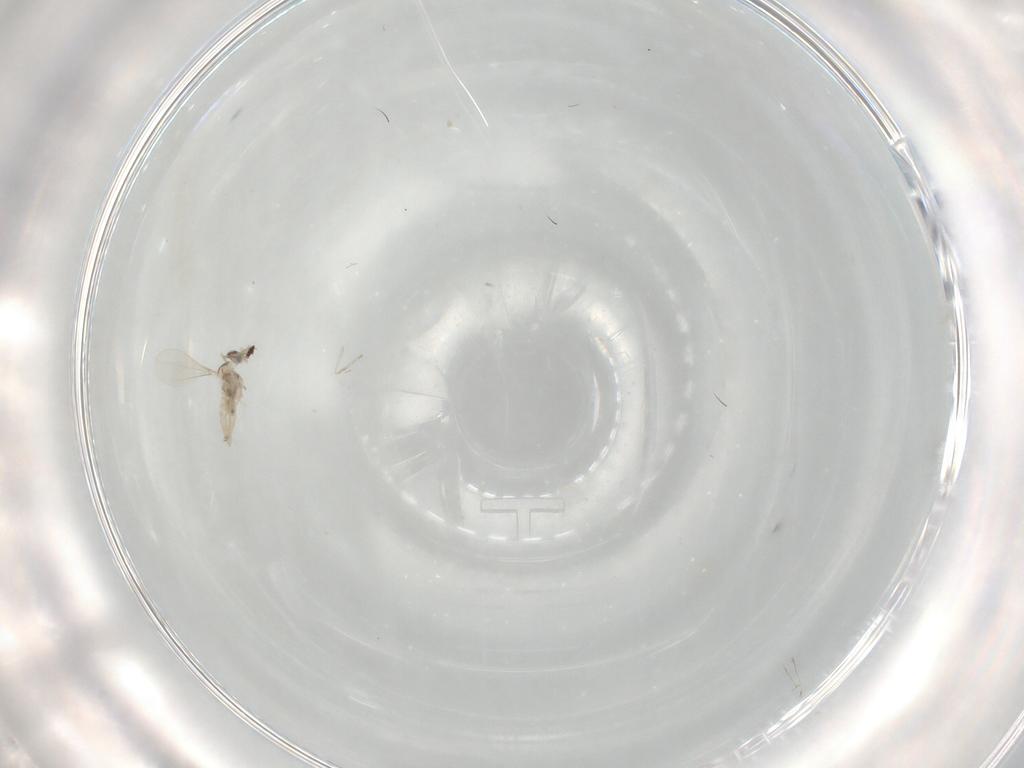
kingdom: Animalia
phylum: Arthropoda
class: Insecta
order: Diptera
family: Cecidomyiidae
